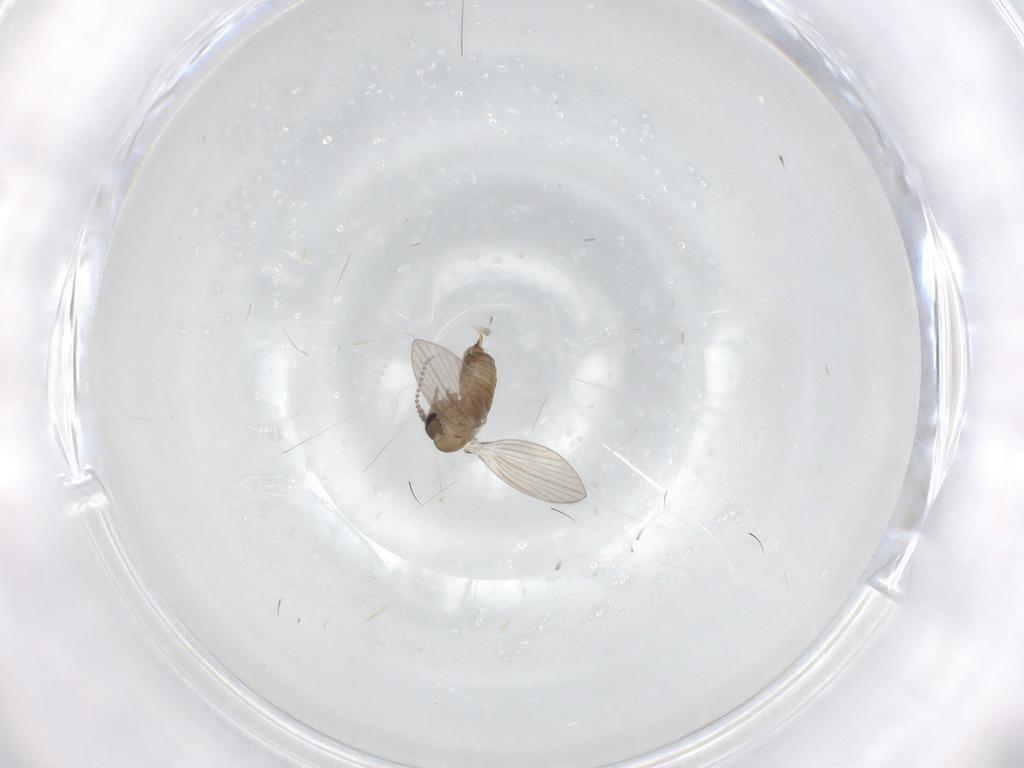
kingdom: Animalia
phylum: Arthropoda
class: Insecta
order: Diptera
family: Psychodidae
